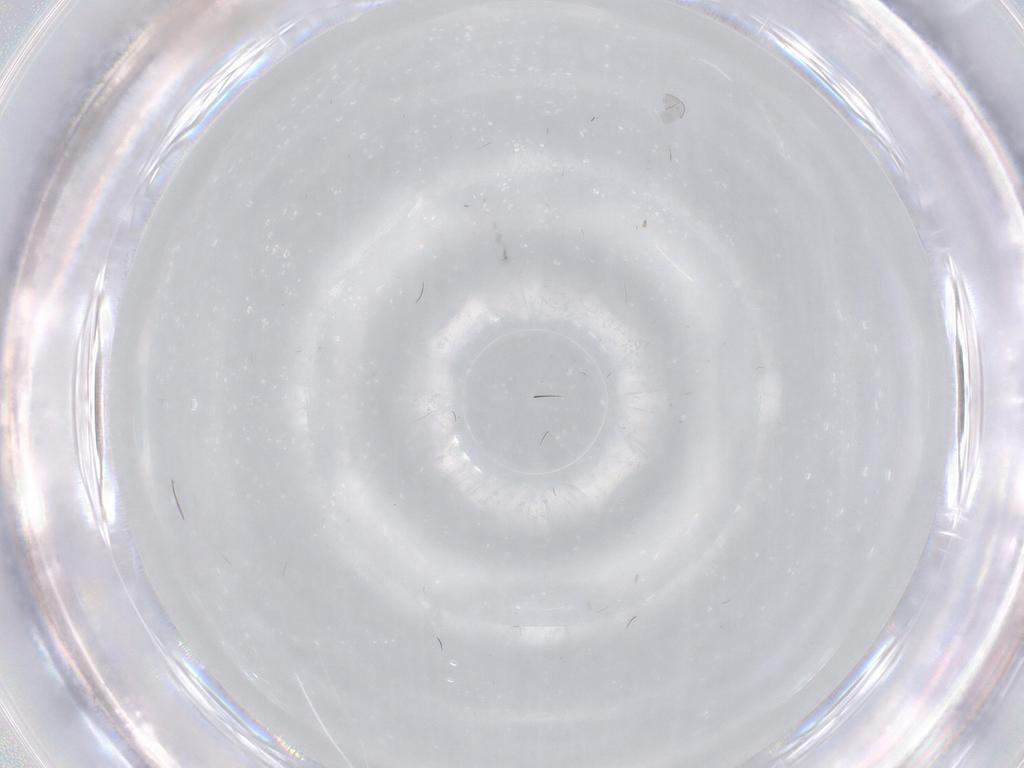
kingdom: Animalia
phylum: Arthropoda
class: Insecta
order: Diptera
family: Cecidomyiidae
